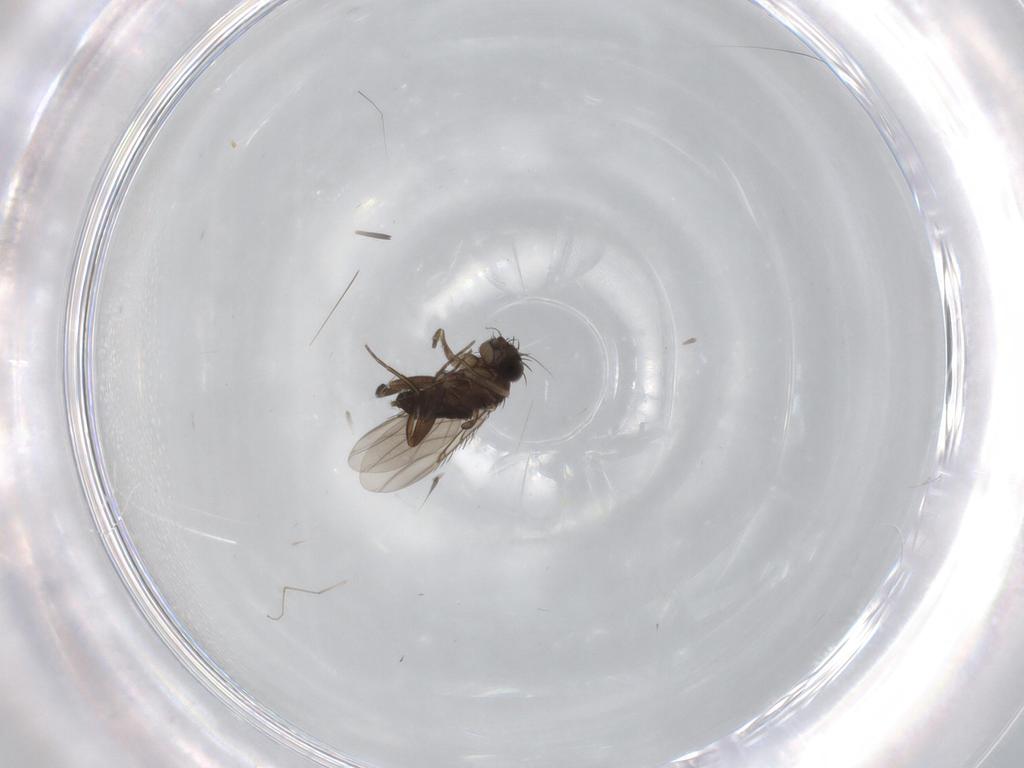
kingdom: Animalia
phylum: Arthropoda
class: Insecta
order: Diptera
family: Phoridae
